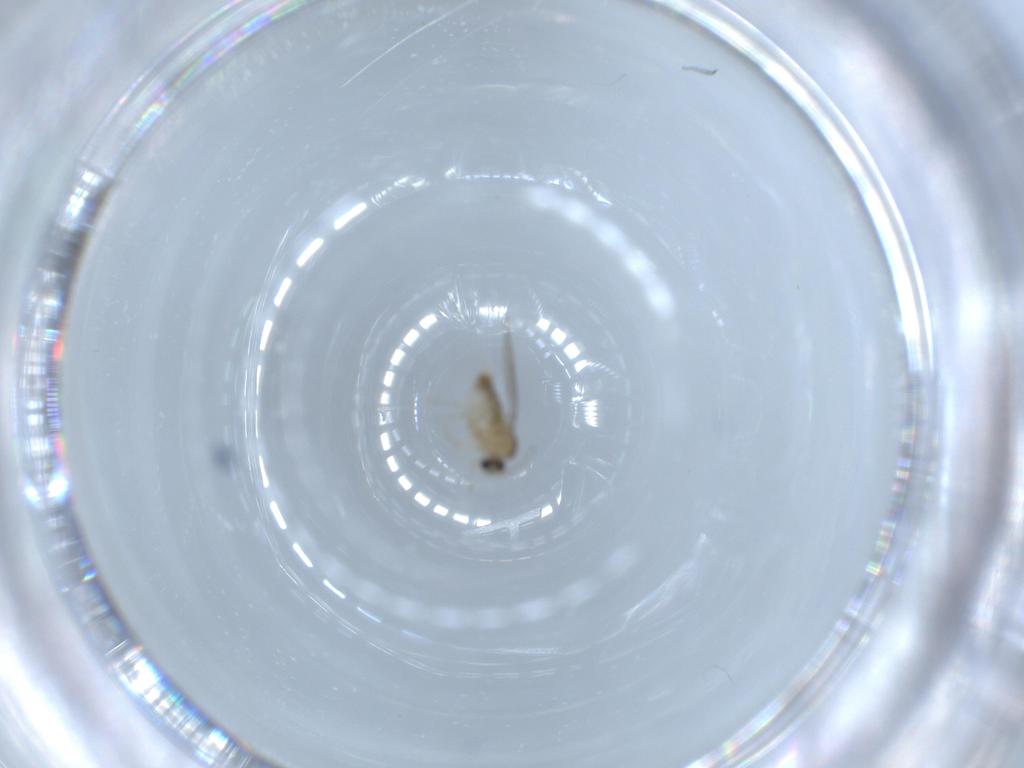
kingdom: Animalia
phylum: Arthropoda
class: Insecta
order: Diptera
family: Cecidomyiidae
